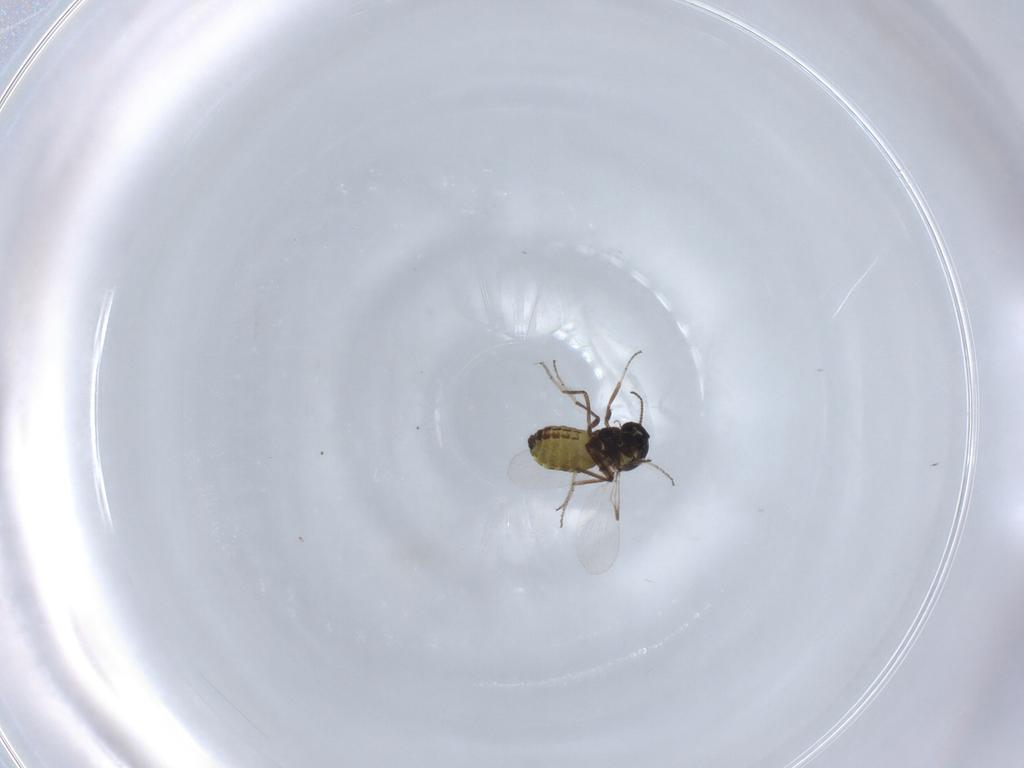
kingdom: Animalia
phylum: Arthropoda
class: Insecta
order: Diptera
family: Ceratopogonidae
